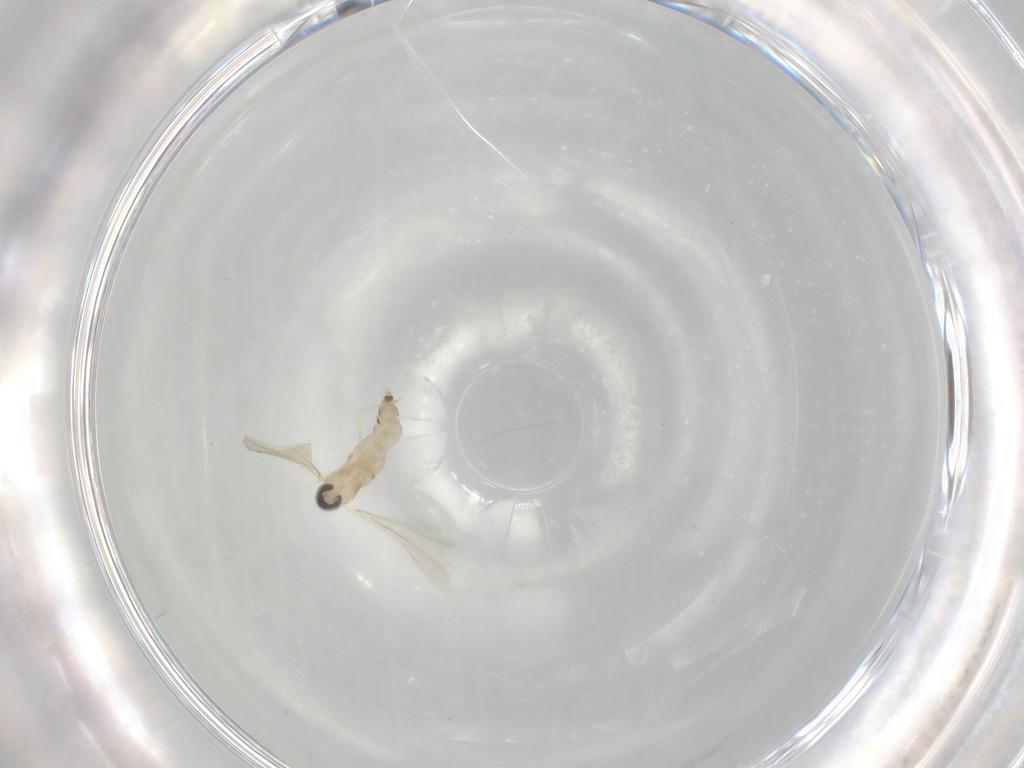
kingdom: Animalia
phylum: Arthropoda
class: Insecta
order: Diptera
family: Cecidomyiidae
